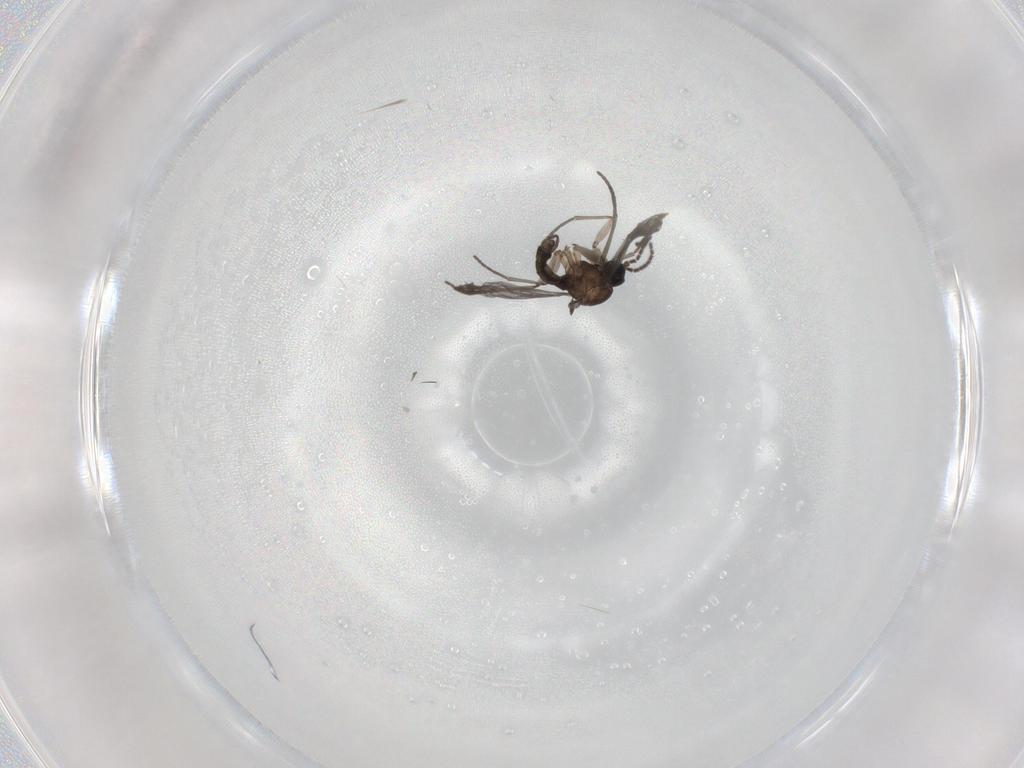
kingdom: Animalia
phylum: Arthropoda
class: Insecta
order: Diptera
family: Sciaridae
